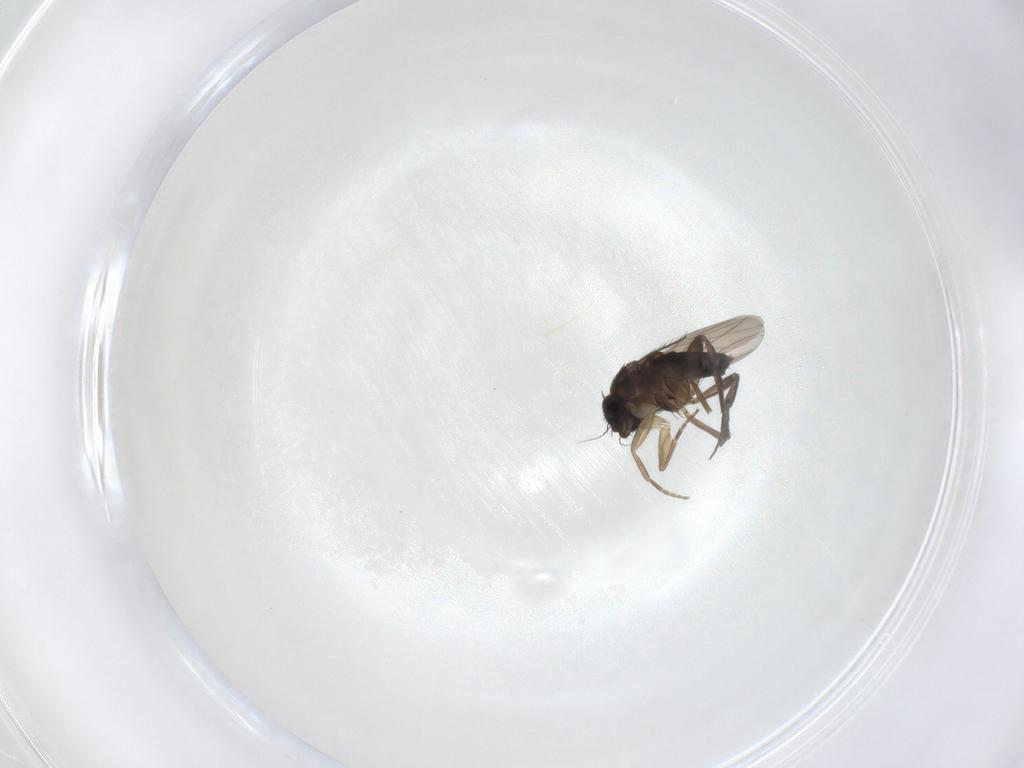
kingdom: Animalia
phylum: Arthropoda
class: Insecta
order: Diptera
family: Phoridae
